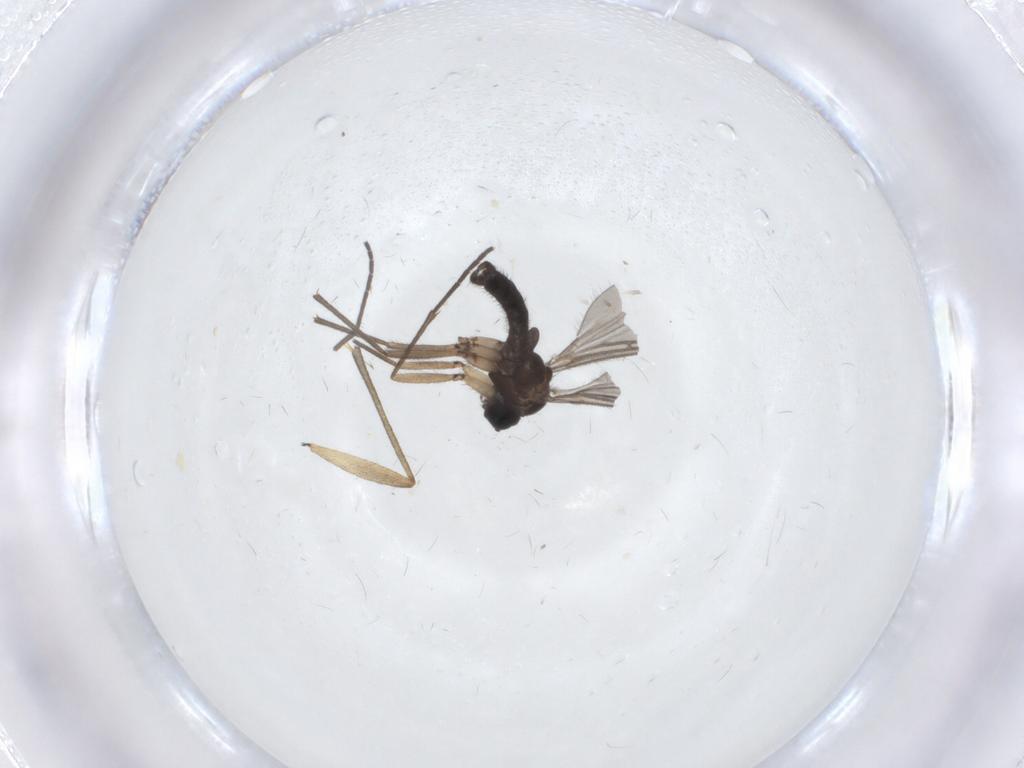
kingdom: Animalia
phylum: Arthropoda
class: Insecta
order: Diptera
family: Sciaridae
